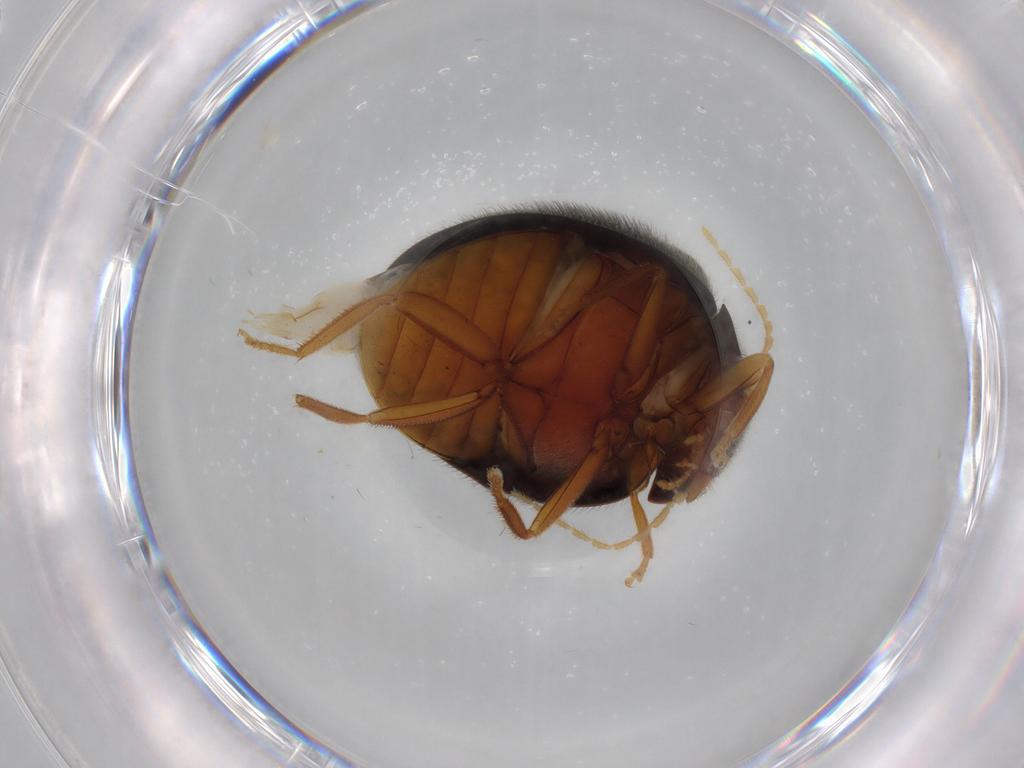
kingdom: Animalia
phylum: Arthropoda
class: Insecta
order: Coleoptera
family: Scirtidae
